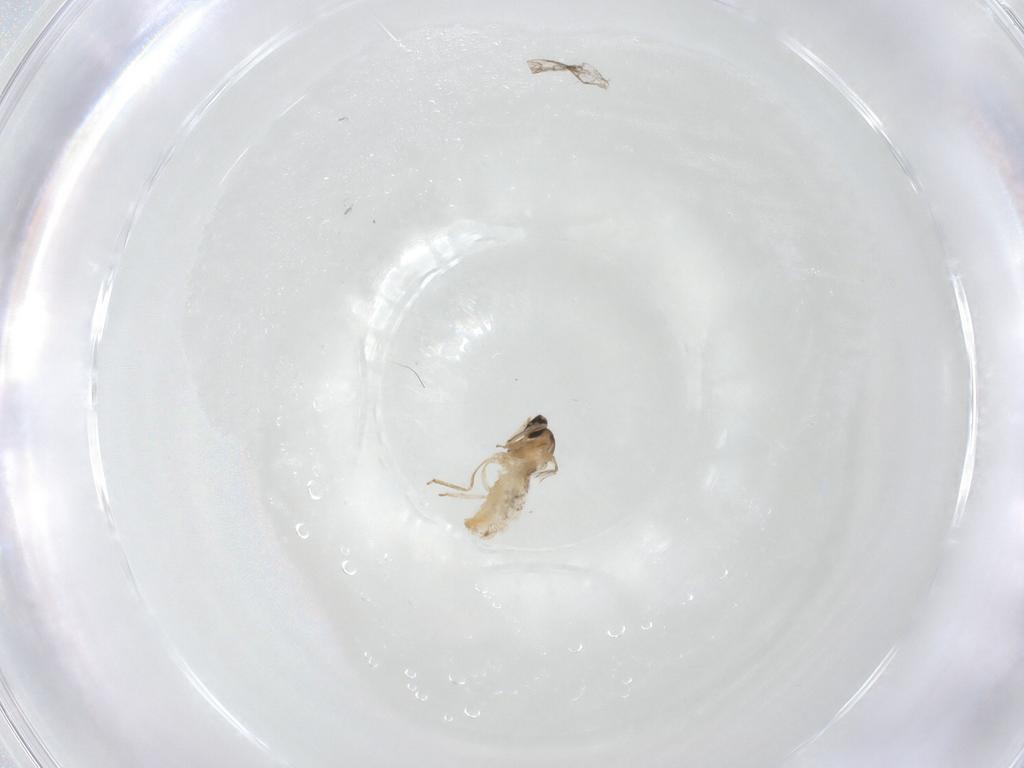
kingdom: Animalia
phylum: Arthropoda
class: Insecta
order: Diptera
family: Cecidomyiidae
